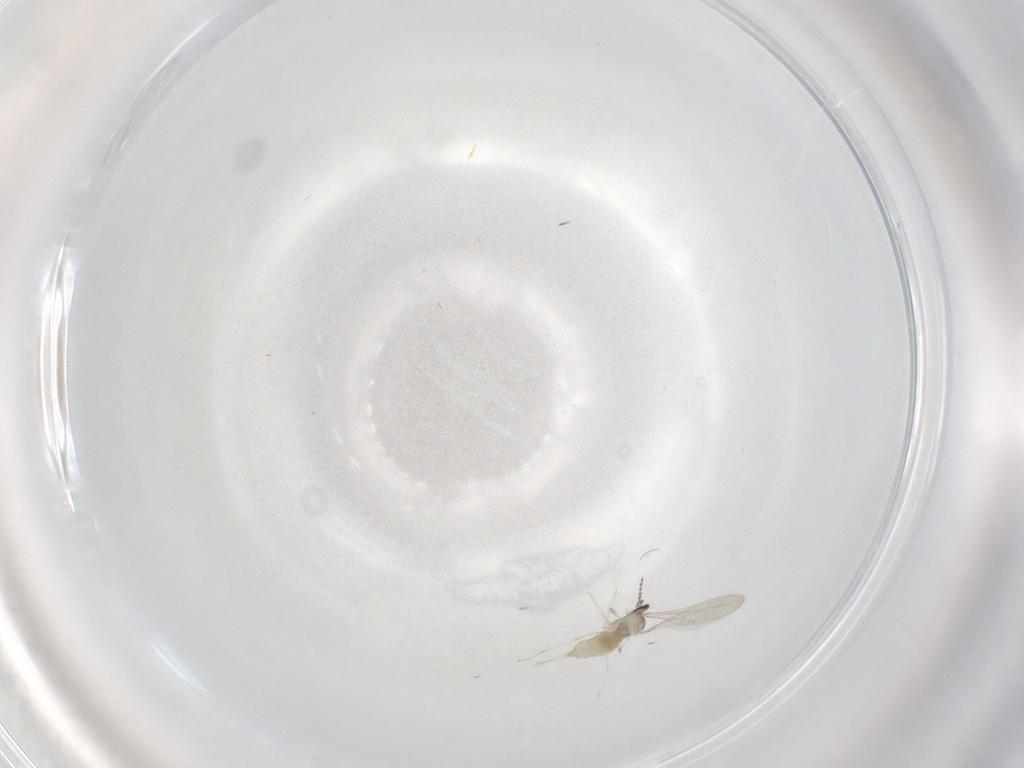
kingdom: Animalia
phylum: Arthropoda
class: Insecta
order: Diptera
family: Cecidomyiidae
